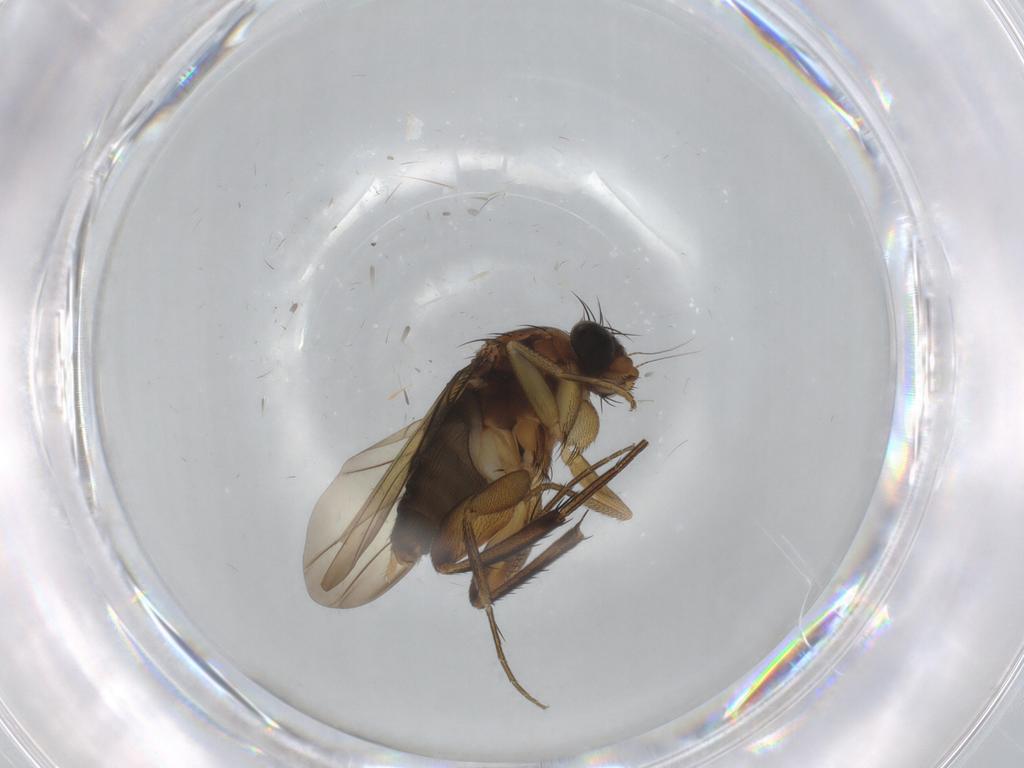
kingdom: Animalia
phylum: Arthropoda
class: Insecta
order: Diptera
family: Phoridae
